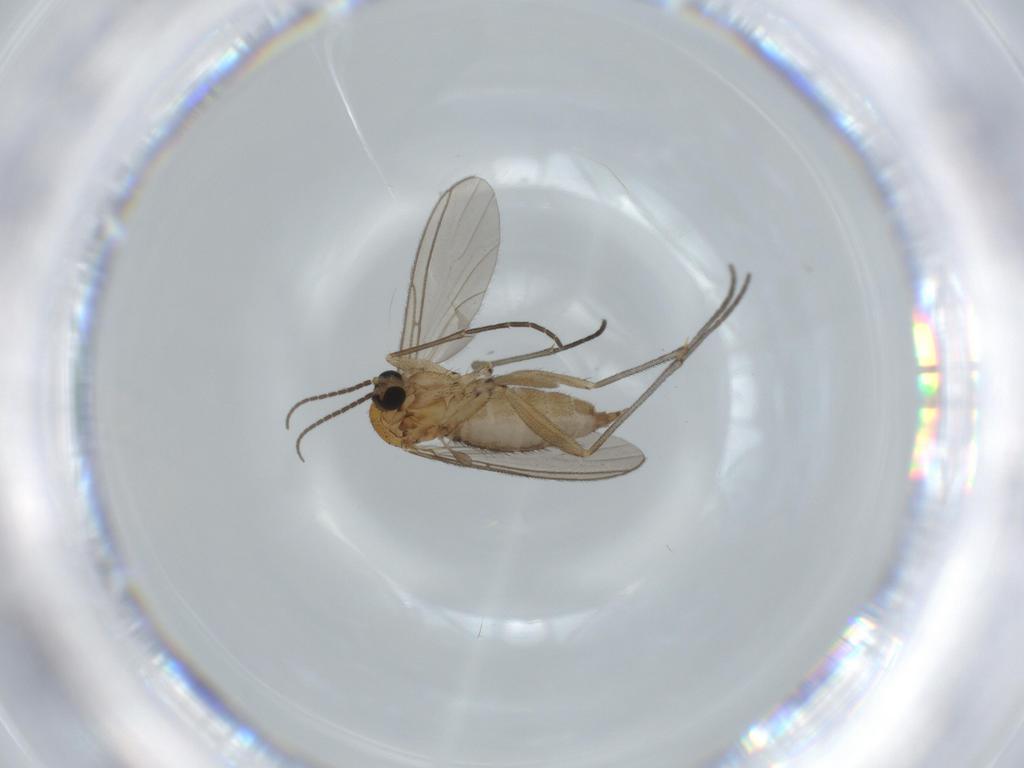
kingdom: Animalia
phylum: Arthropoda
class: Insecta
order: Diptera
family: Sciaridae
